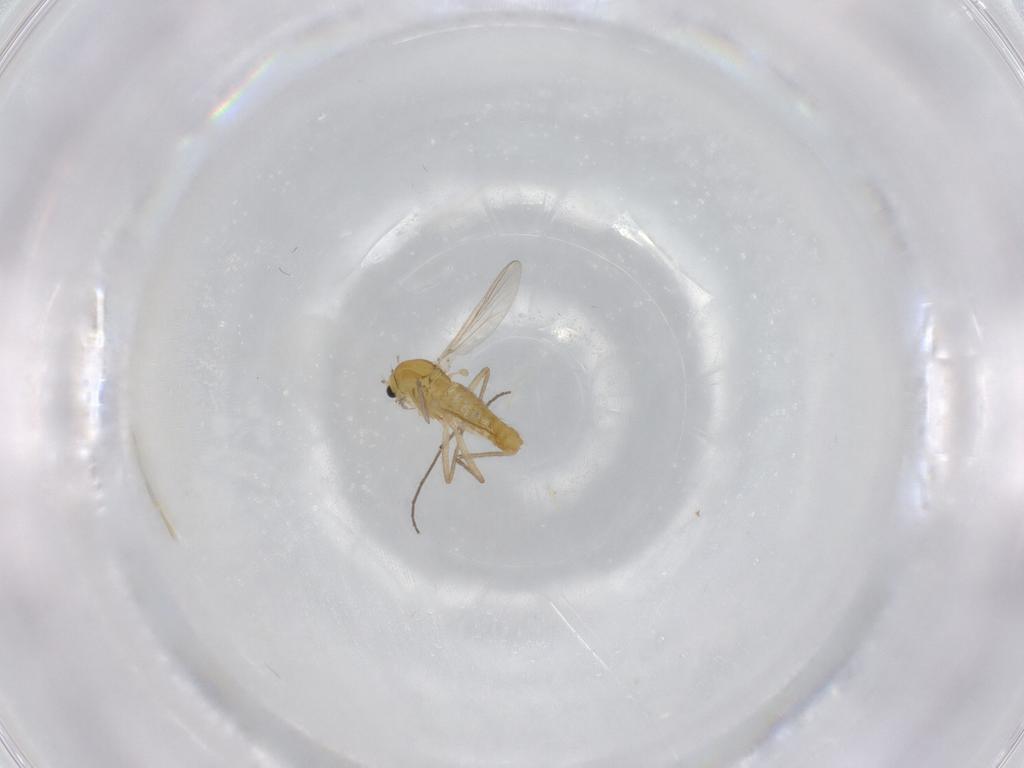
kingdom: Animalia
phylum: Arthropoda
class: Insecta
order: Diptera
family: Chironomidae
